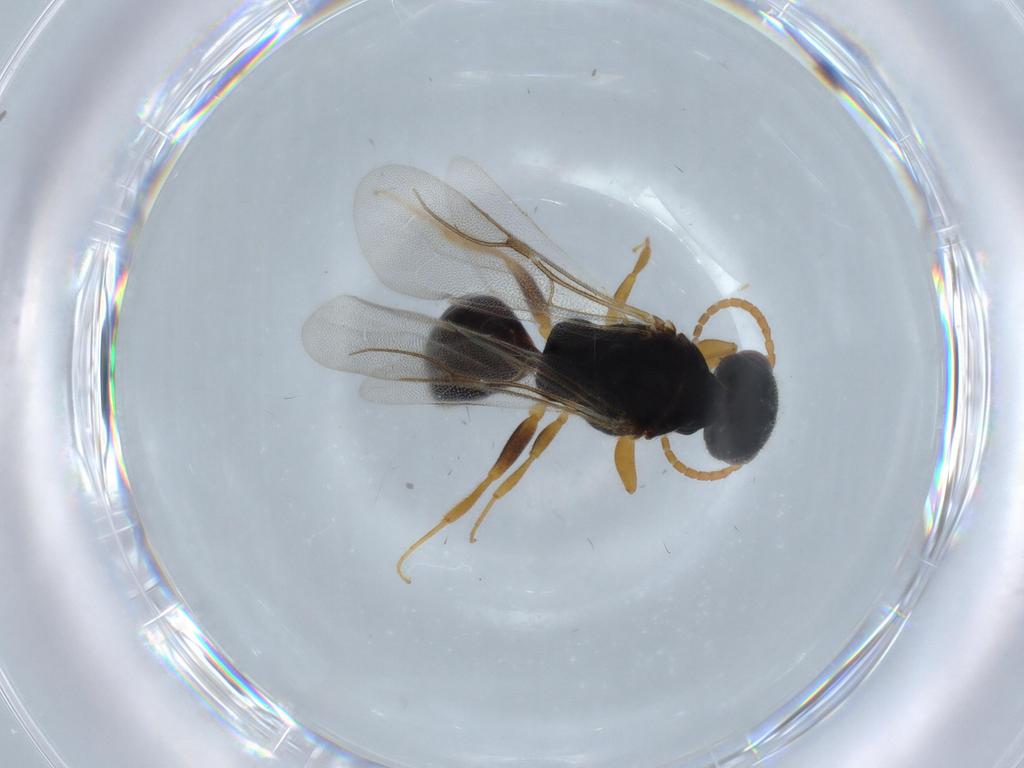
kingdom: Animalia
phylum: Arthropoda
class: Insecta
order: Hymenoptera
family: Bethylidae
